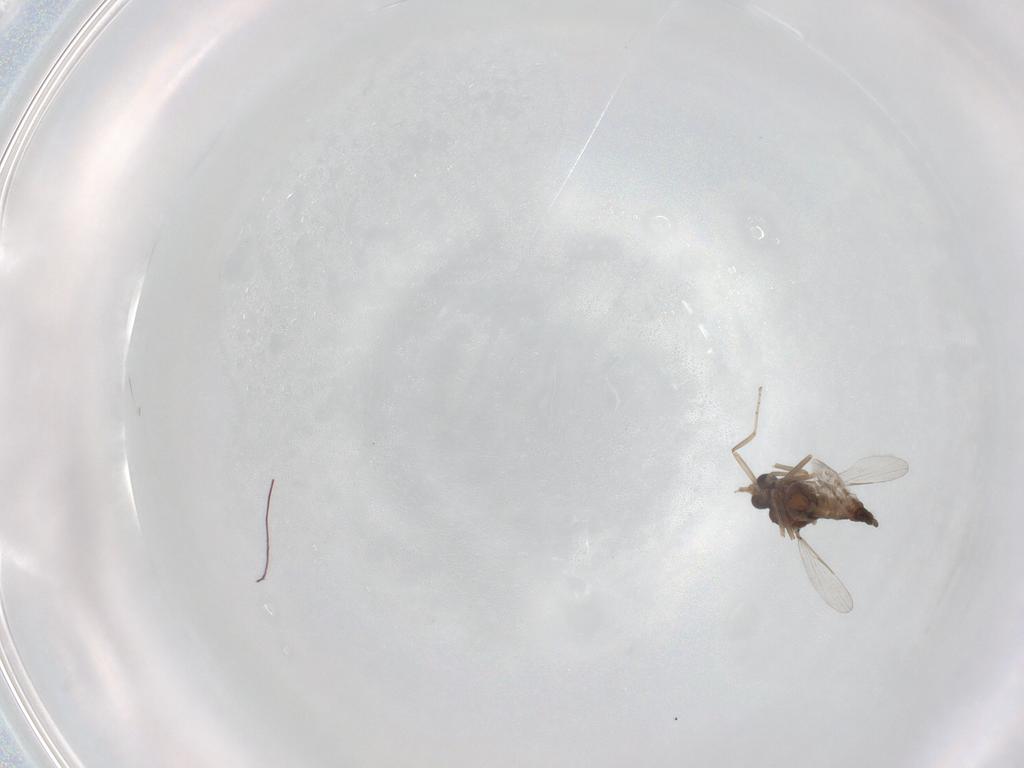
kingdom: Animalia
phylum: Arthropoda
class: Insecta
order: Diptera
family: Ceratopogonidae
